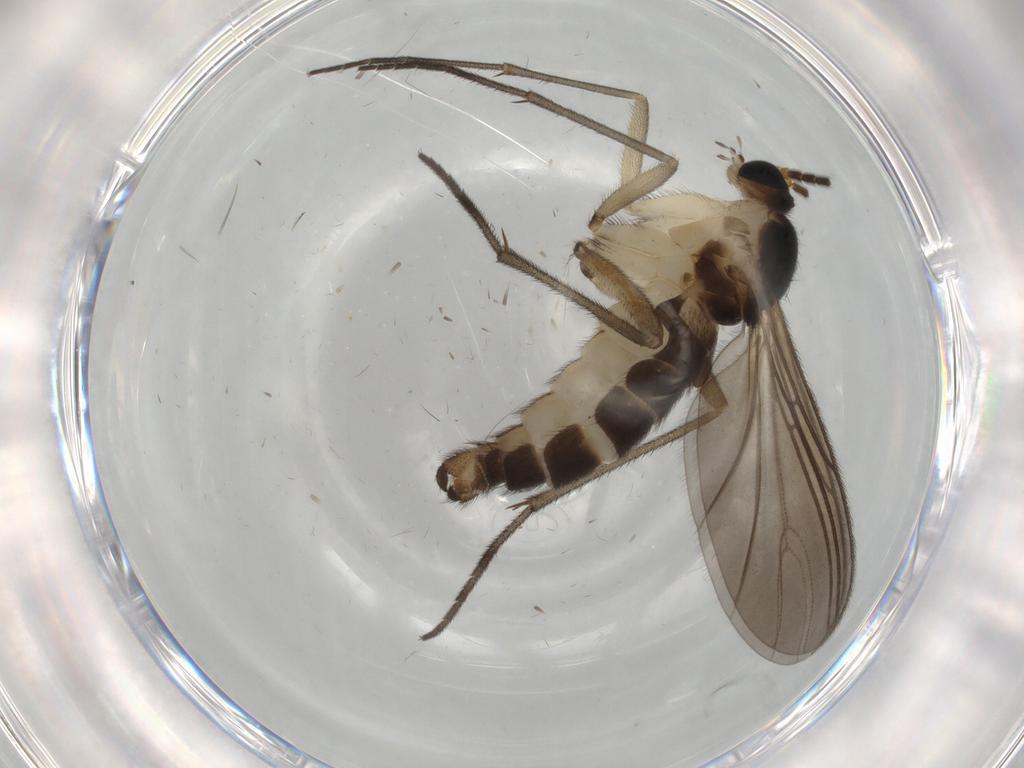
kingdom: Animalia
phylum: Arthropoda
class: Insecta
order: Diptera
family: Sciaridae
